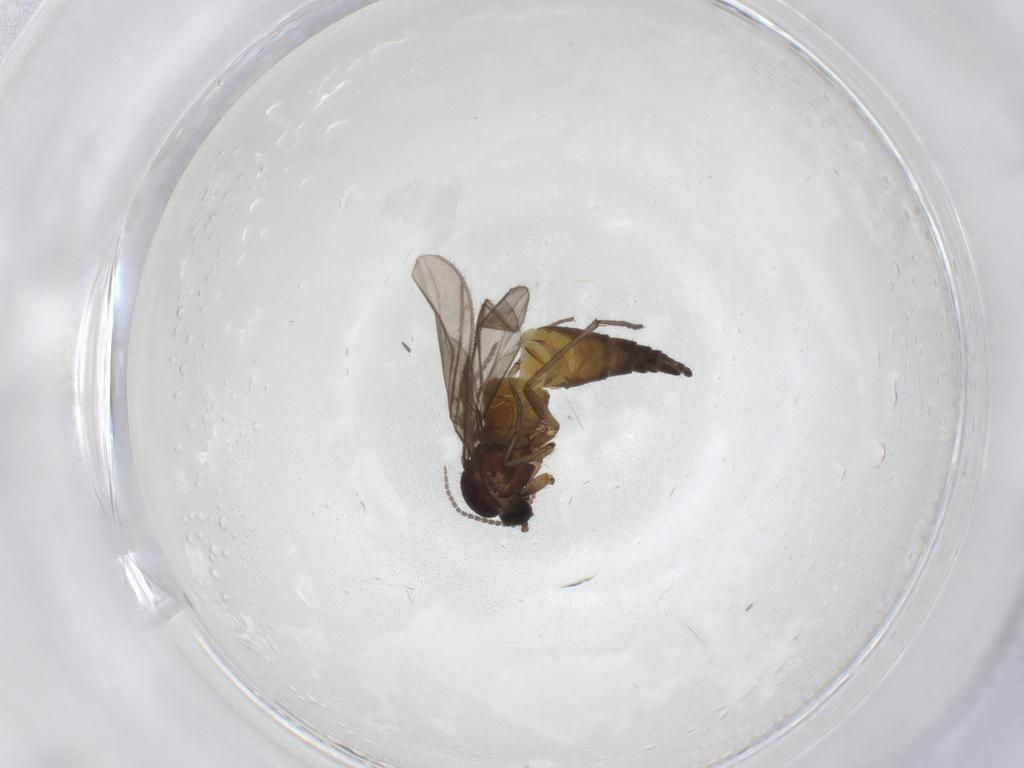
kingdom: Animalia
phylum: Arthropoda
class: Insecta
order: Diptera
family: Sciaridae
